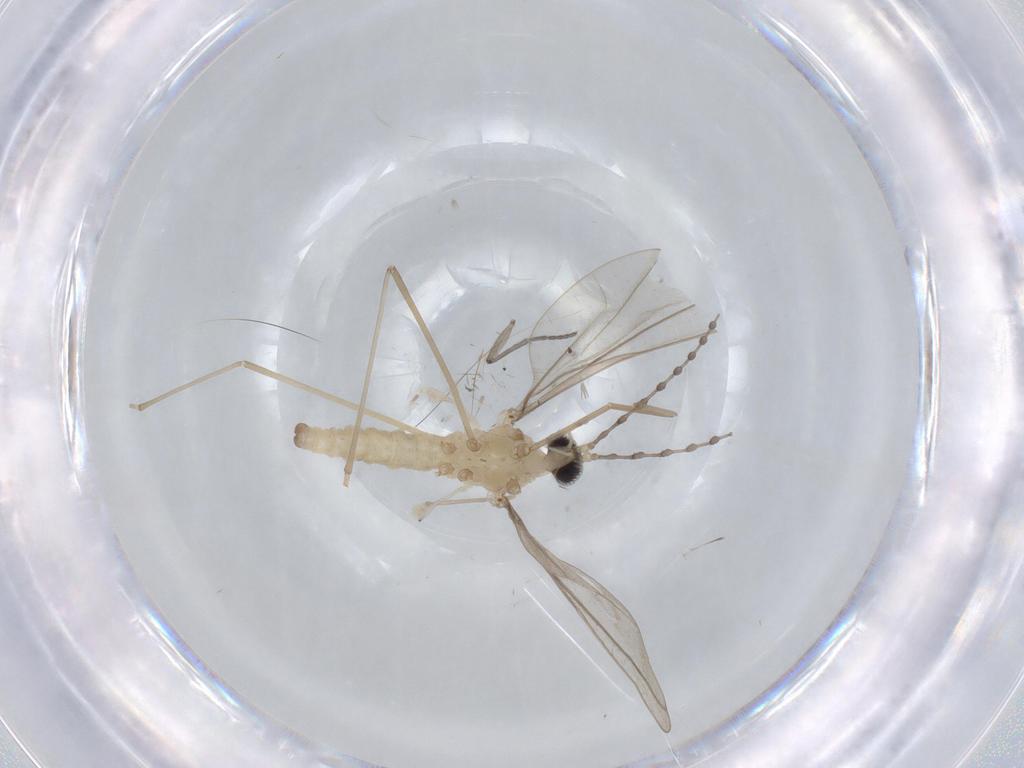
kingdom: Animalia
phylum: Arthropoda
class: Insecta
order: Diptera
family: Sciaridae
